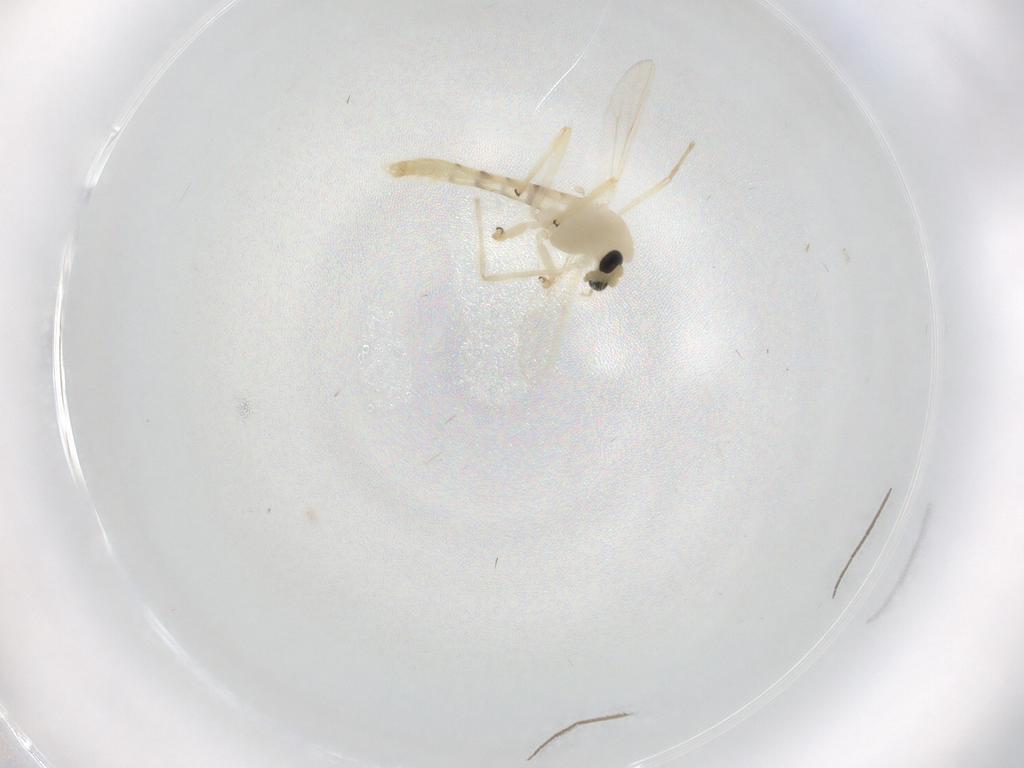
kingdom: Animalia
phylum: Arthropoda
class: Insecta
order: Diptera
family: Chironomidae
